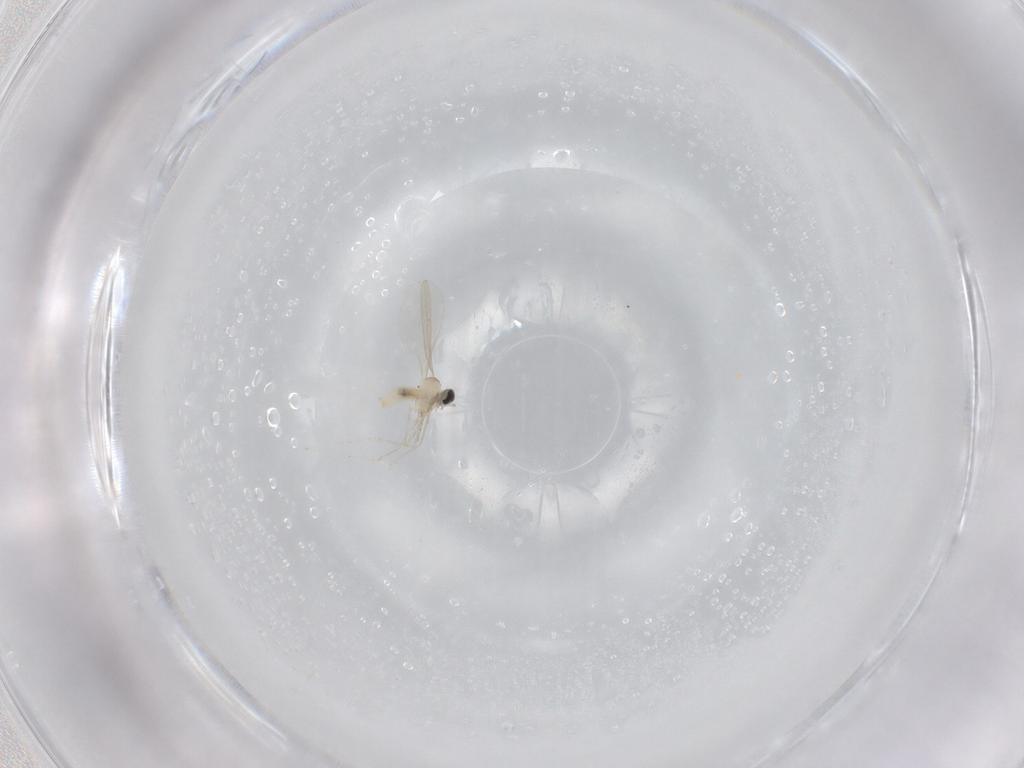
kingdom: Animalia
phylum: Arthropoda
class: Insecta
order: Diptera
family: Cecidomyiidae
